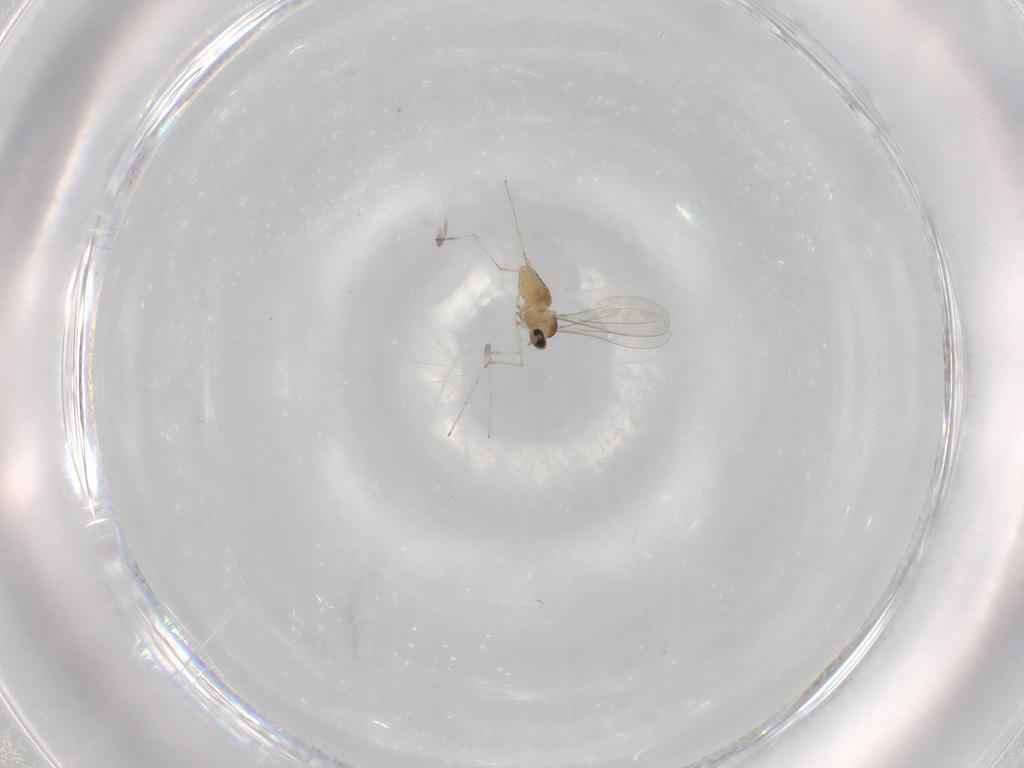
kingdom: Animalia
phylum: Arthropoda
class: Insecta
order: Diptera
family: Cecidomyiidae
